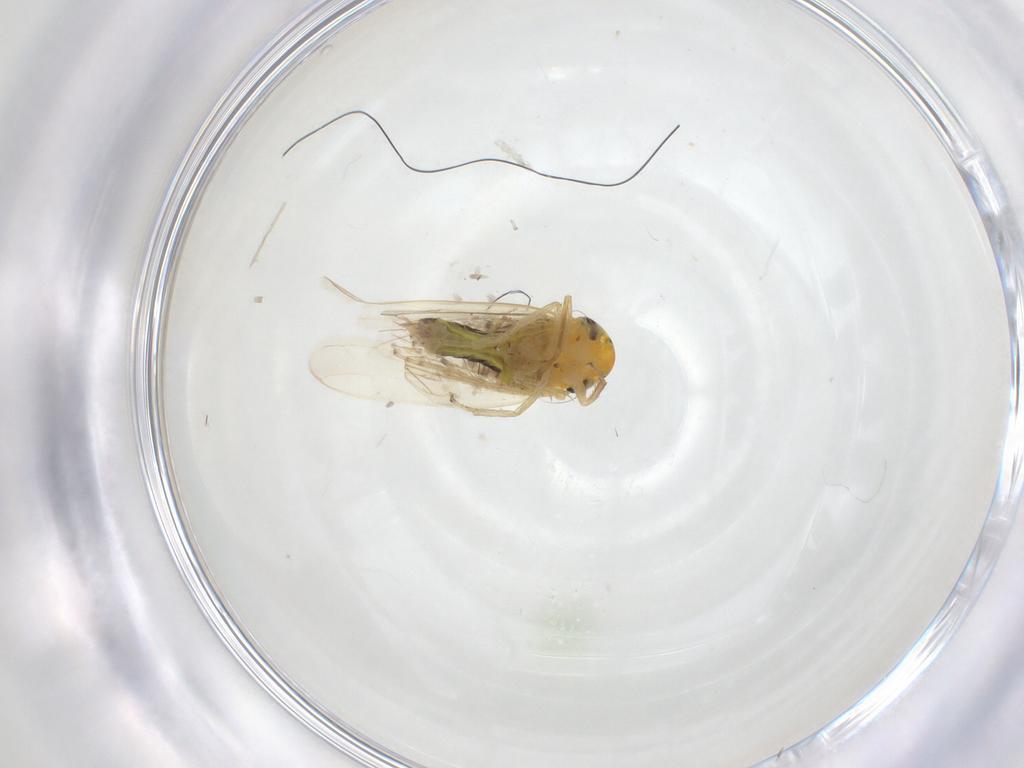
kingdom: Animalia
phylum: Arthropoda
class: Insecta
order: Hemiptera
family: Cicadellidae
